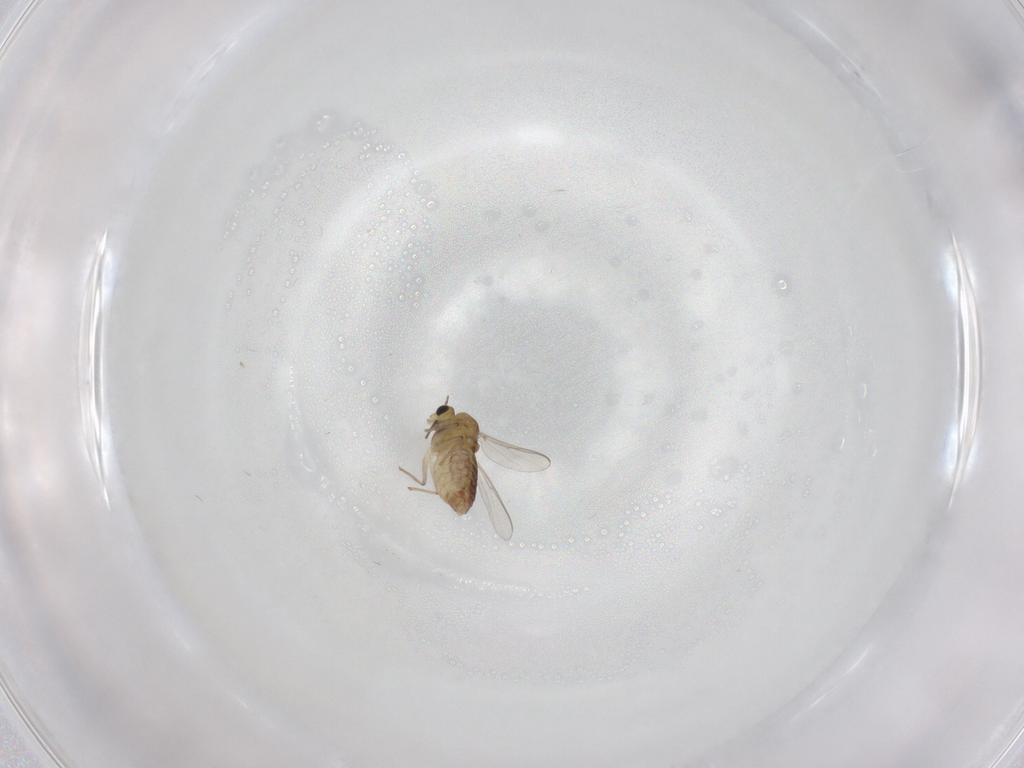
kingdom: Animalia
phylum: Arthropoda
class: Insecta
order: Diptera
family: Chironomidae
